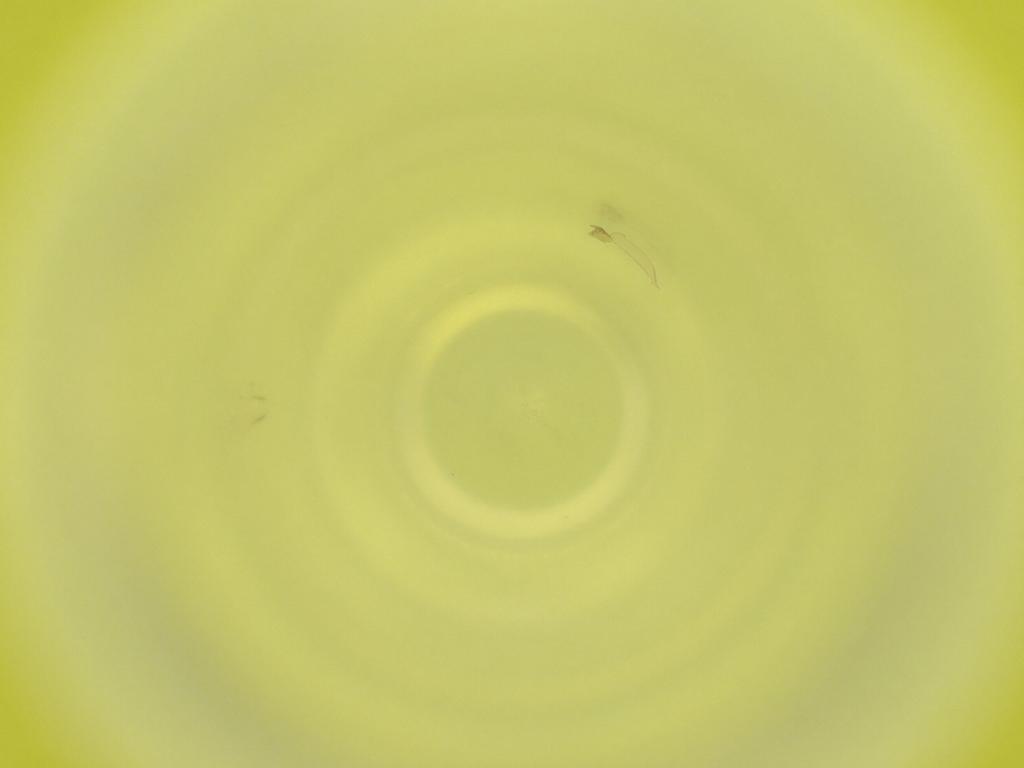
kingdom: Animalia
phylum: Arthropoda
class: Insecta
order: Diptera
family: Cecidomyiidae
